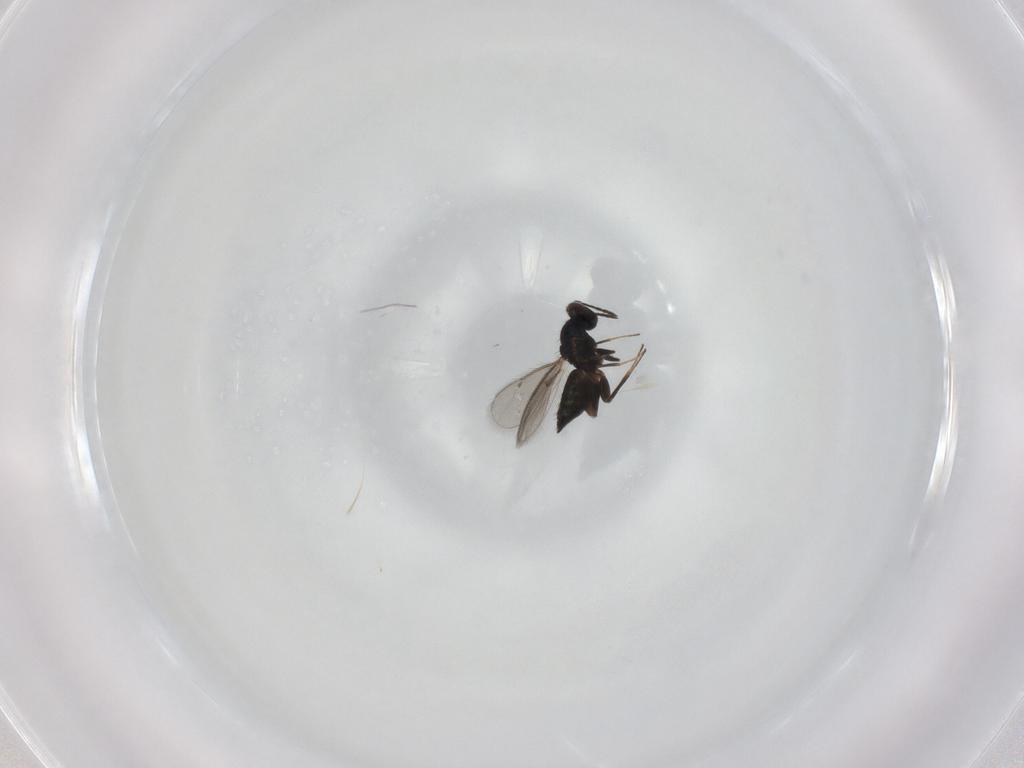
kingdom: Animalia
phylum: Arthropoda
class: Insecta
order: Hymenoptera
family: Eulophidae
